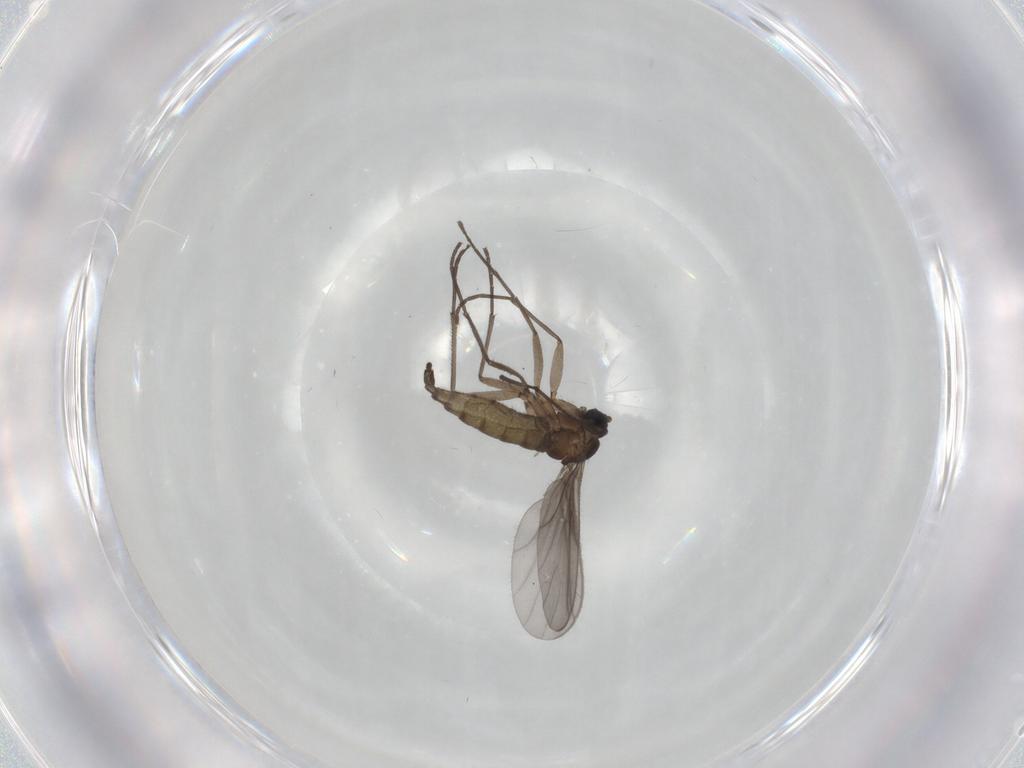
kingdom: Animalia
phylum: Arthropoda
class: Insecta
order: Diptera
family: Sciaridae
